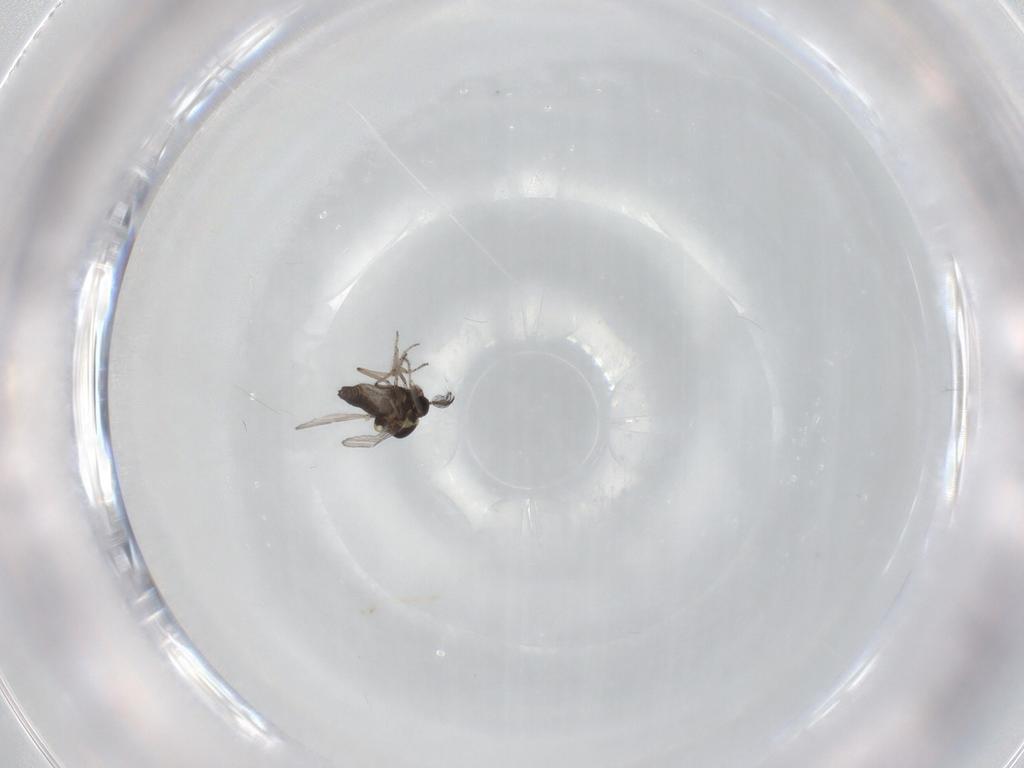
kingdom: Animalia
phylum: Arthropoda
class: Insecta
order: Diptera
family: Ceratopogonidae
